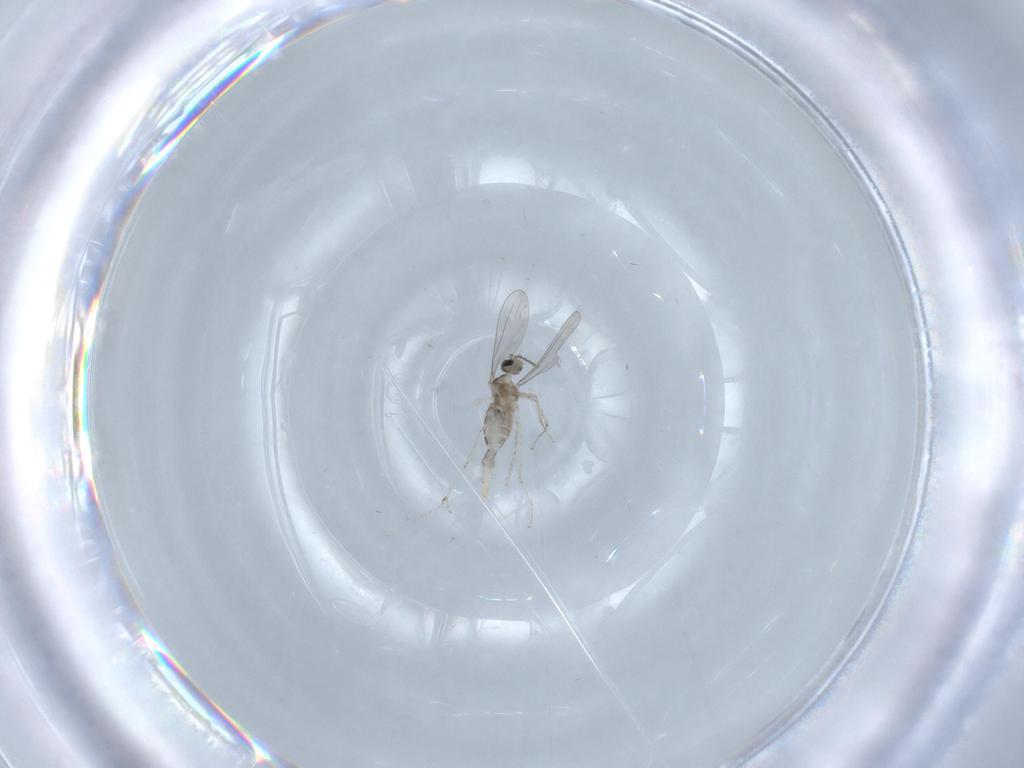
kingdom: Animalia
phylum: Arthropoda
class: Insecta
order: Diptera
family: Cecidomyiidae
